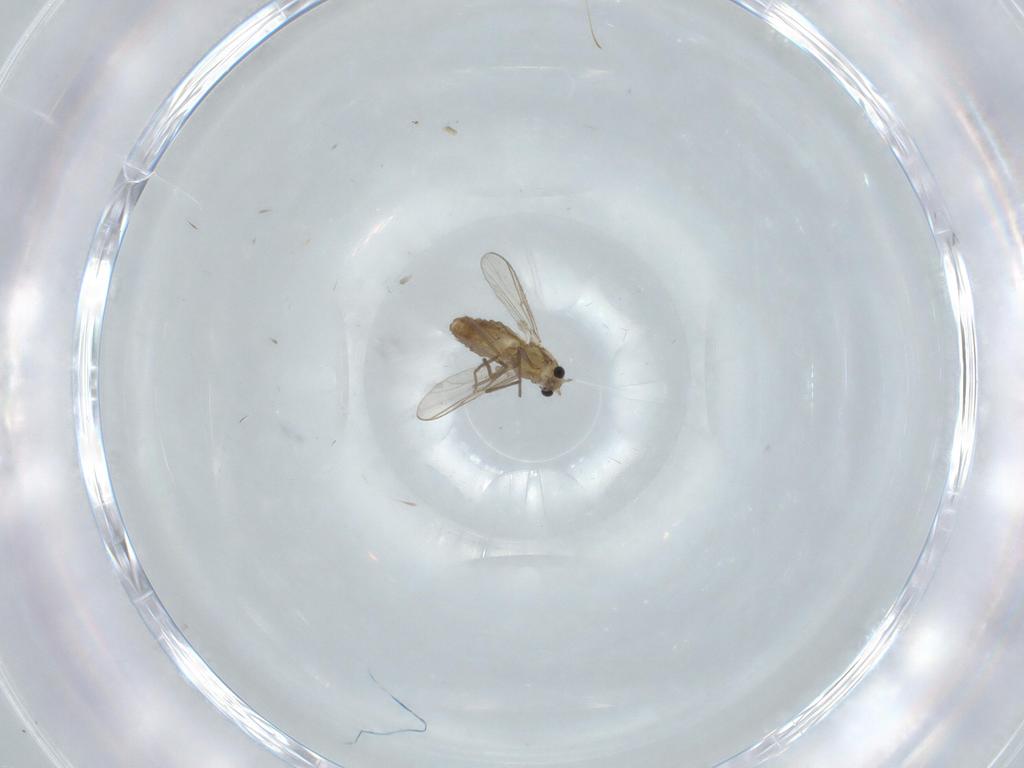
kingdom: Animalia
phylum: Arthropoda
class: Insecta
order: Diptera
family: Chironomidae
